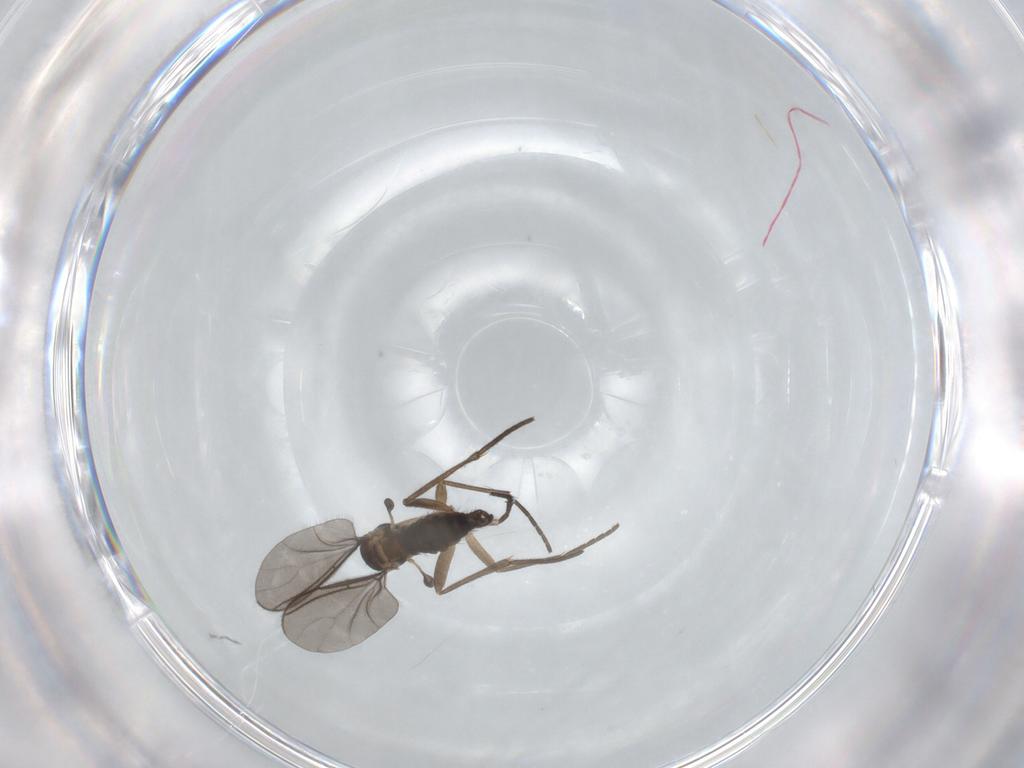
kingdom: Animalia
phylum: Arthropoda
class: Insecta
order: Diptera
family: Sciaridae
